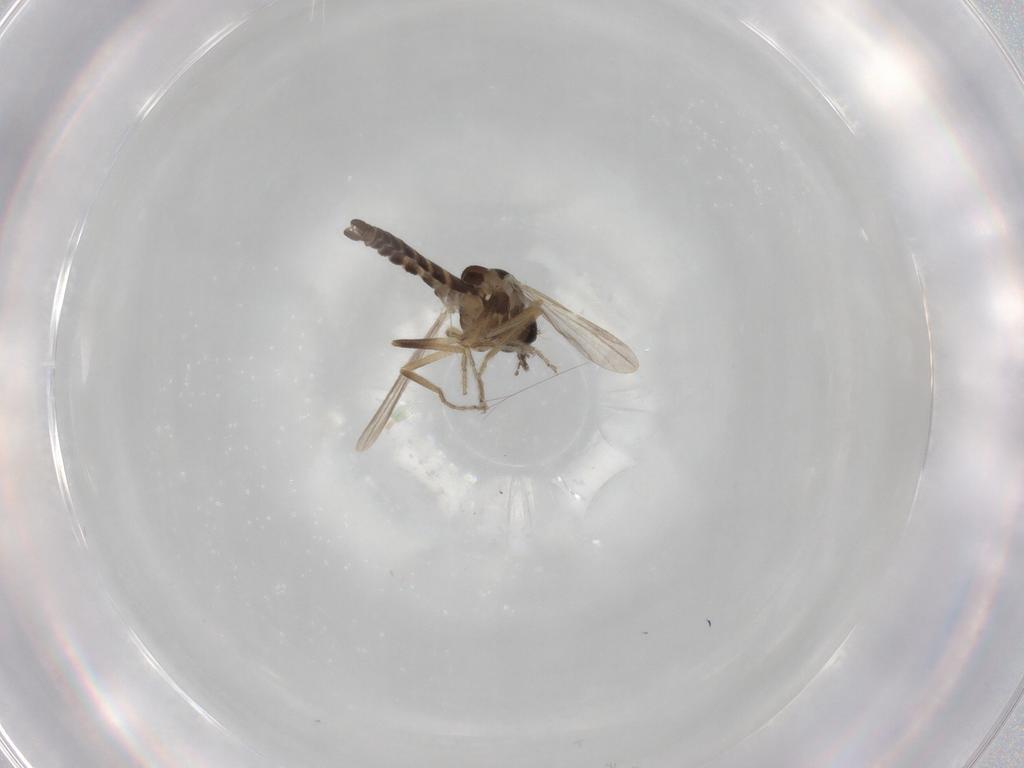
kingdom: Animalia
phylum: Arthropoda
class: Insecta
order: Diptera
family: Ceratopogonidae
